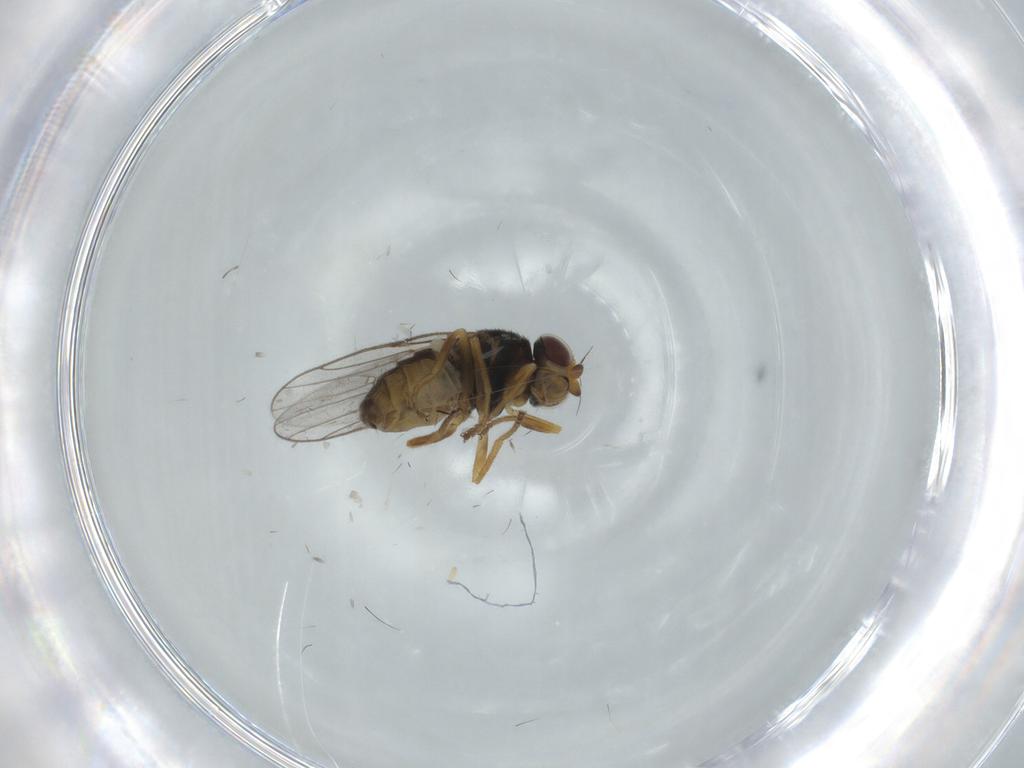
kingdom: Animalia
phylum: Arthropoda
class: Insecta
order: Diptera
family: Chloropidae
